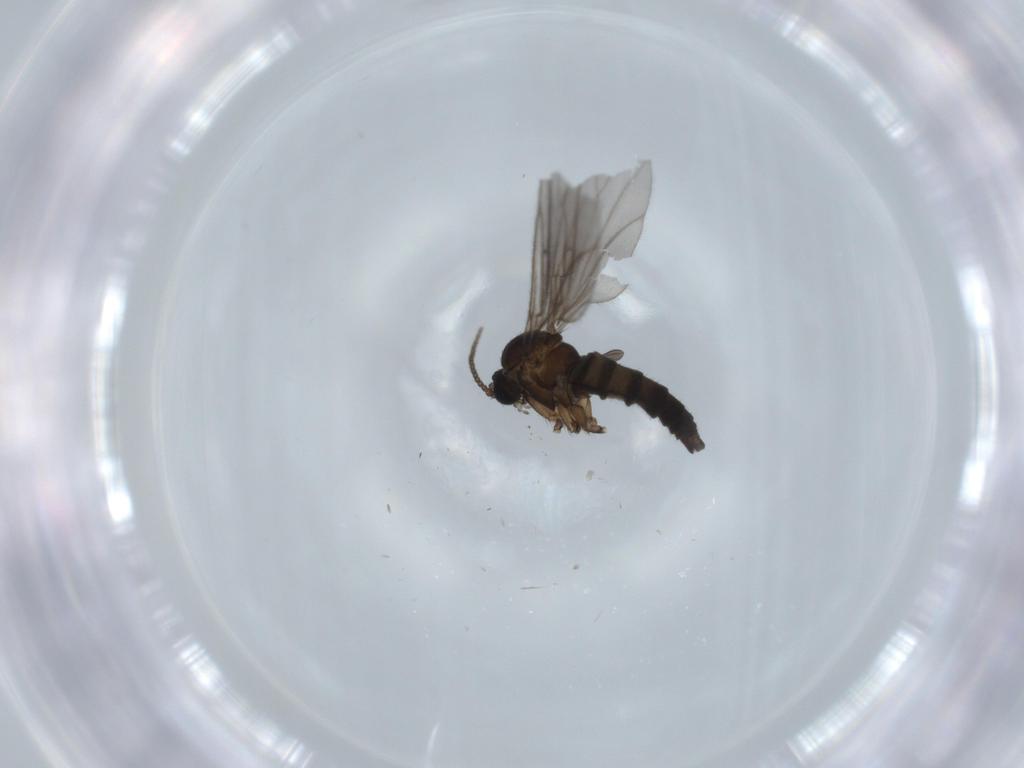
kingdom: Animalia
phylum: Arthropoda
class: Insecta
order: Diptera
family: Sciaridae
